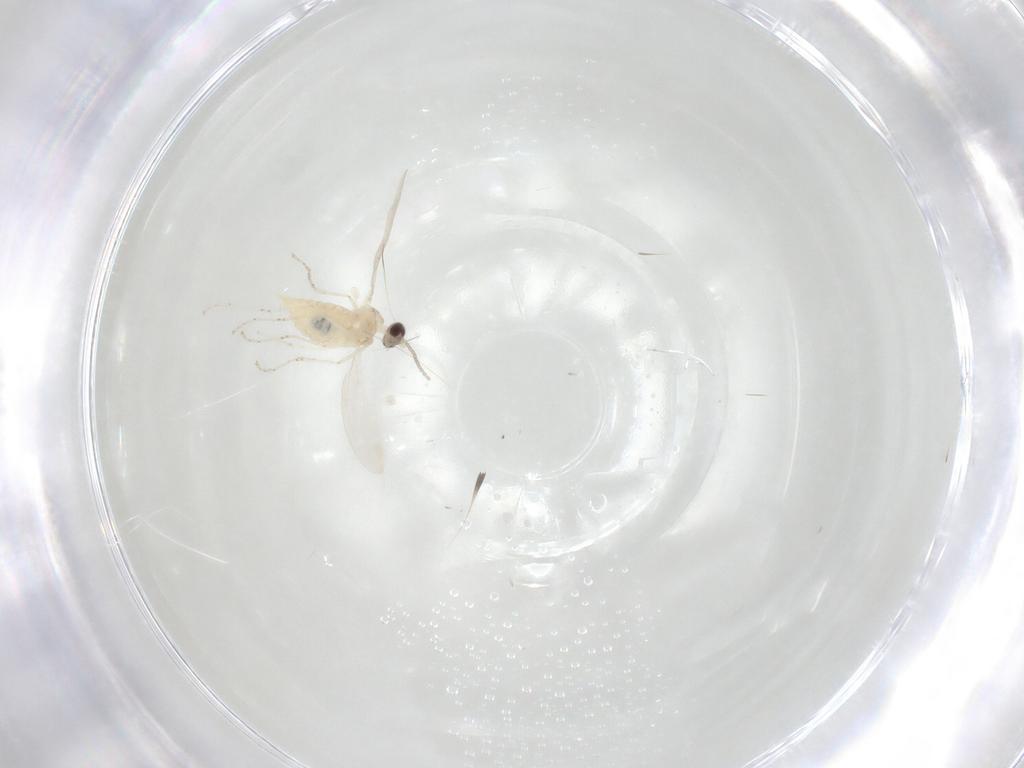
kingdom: Animalia
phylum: Arthropoda
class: Insecta
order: Diptera
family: Cecidomyiidae
